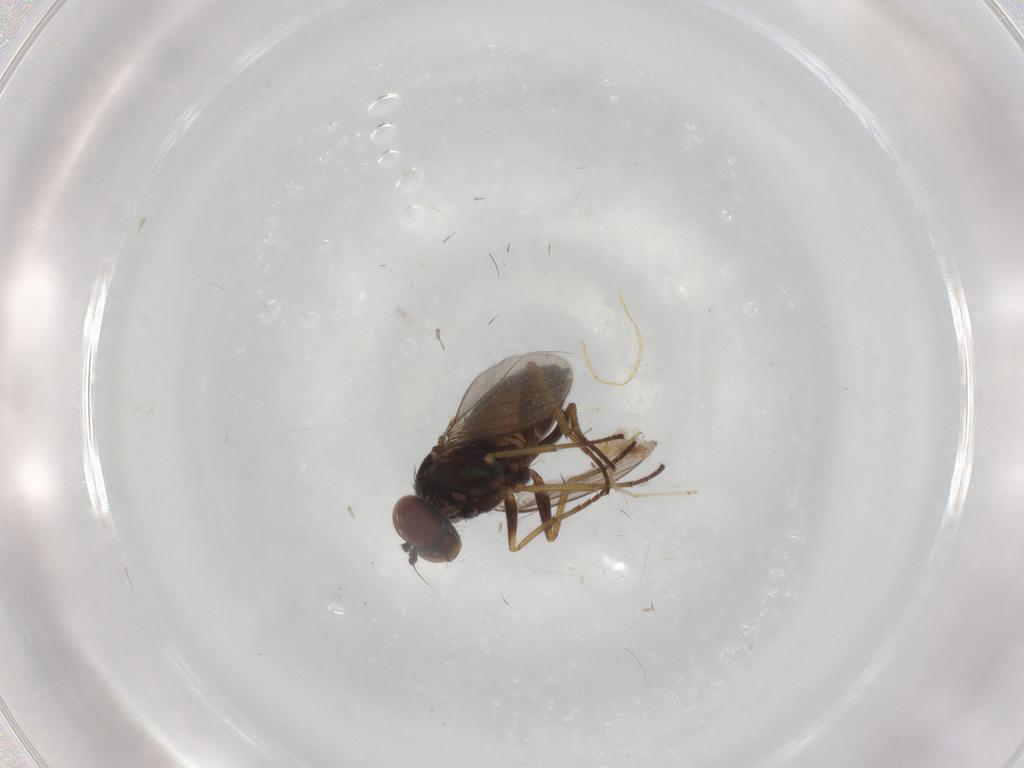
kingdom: Animalia
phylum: Arthropoda
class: Insecta
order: Diptera
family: Dolichopodidae
